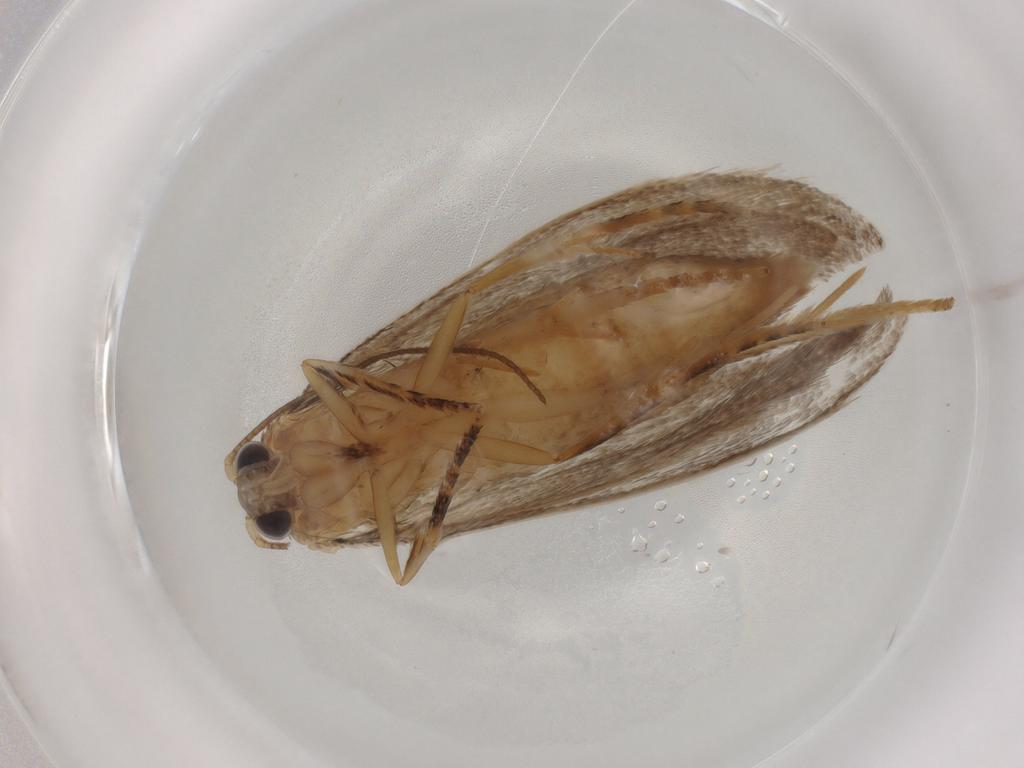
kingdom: Animalia
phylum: Arthropoda
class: Insecta
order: Lepidoptera
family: Eriocottidae
